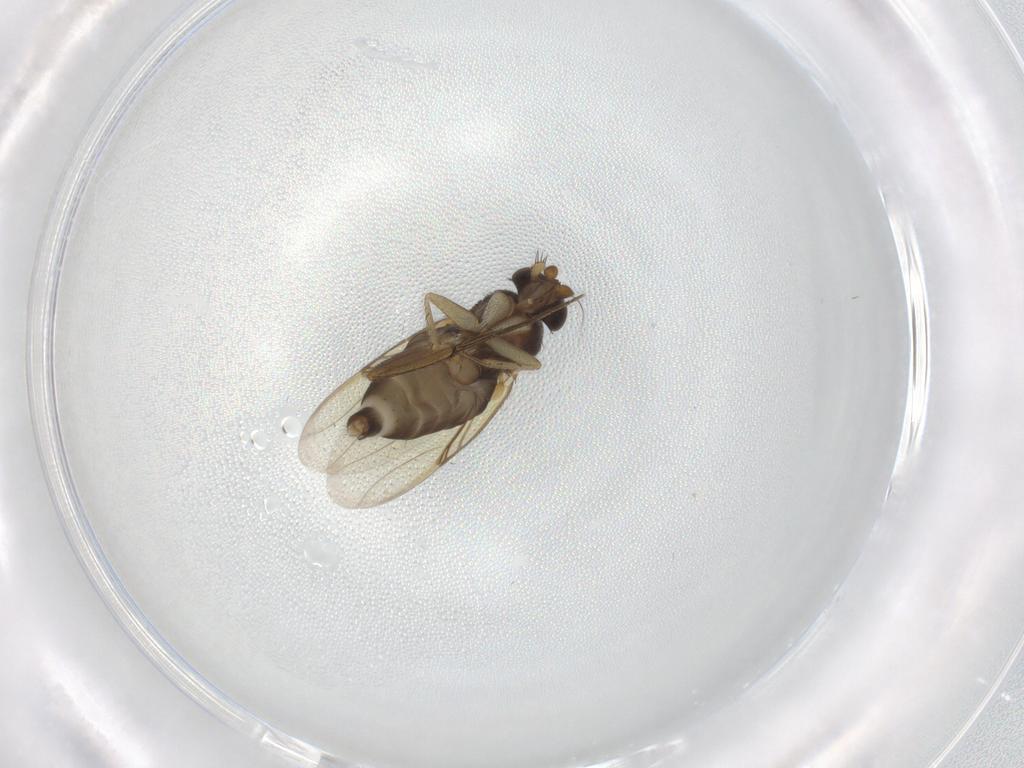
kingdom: Animalia
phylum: Arthropoda
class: Insecta
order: Diptera
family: Phoridae
